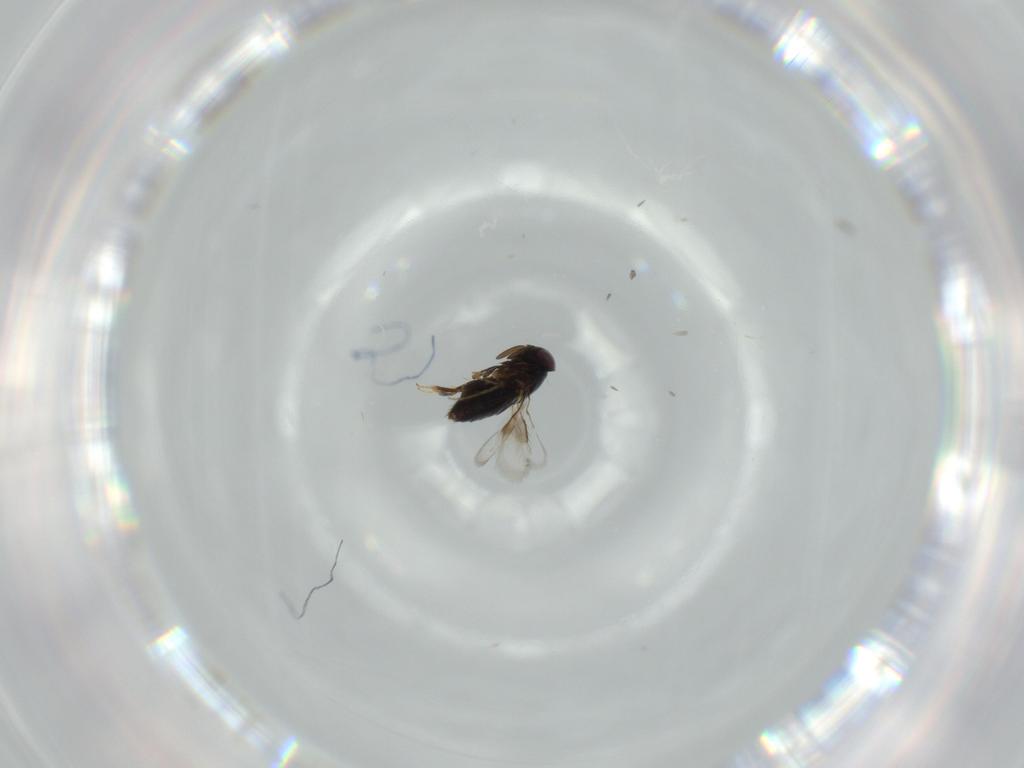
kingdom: Animalia
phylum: Arthropoda
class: Insecta
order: Hymenoptera
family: Signiphoridae
